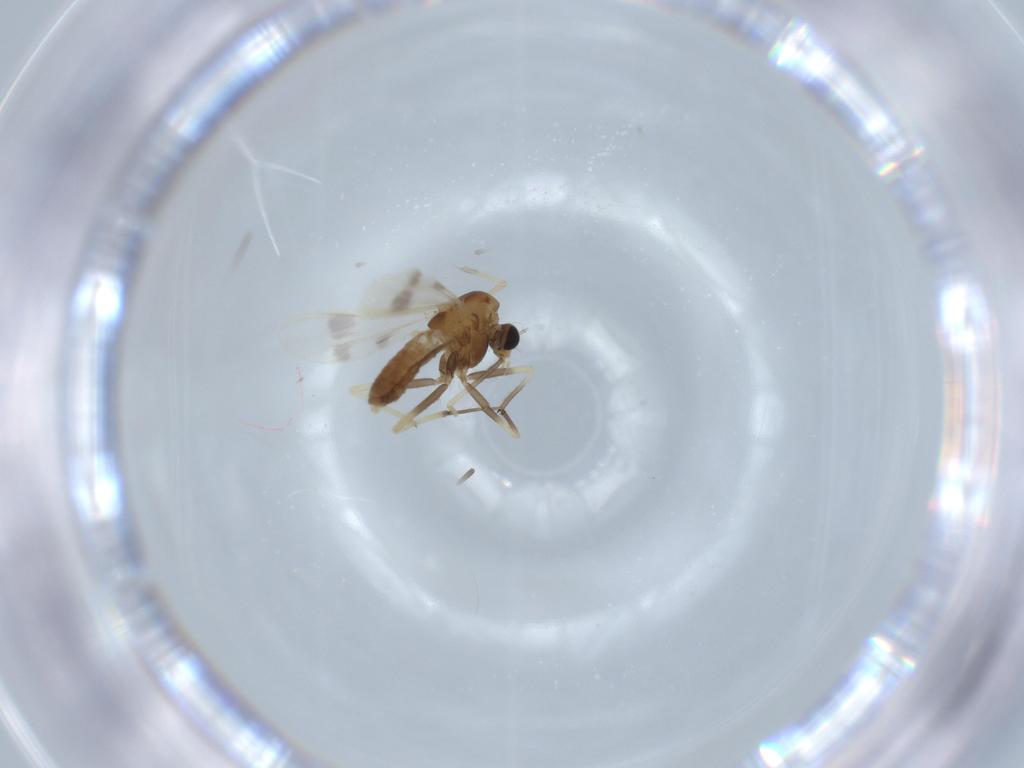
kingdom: Animalia
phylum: Arthropoda
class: Insecta
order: Diptera
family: Chironomidae
